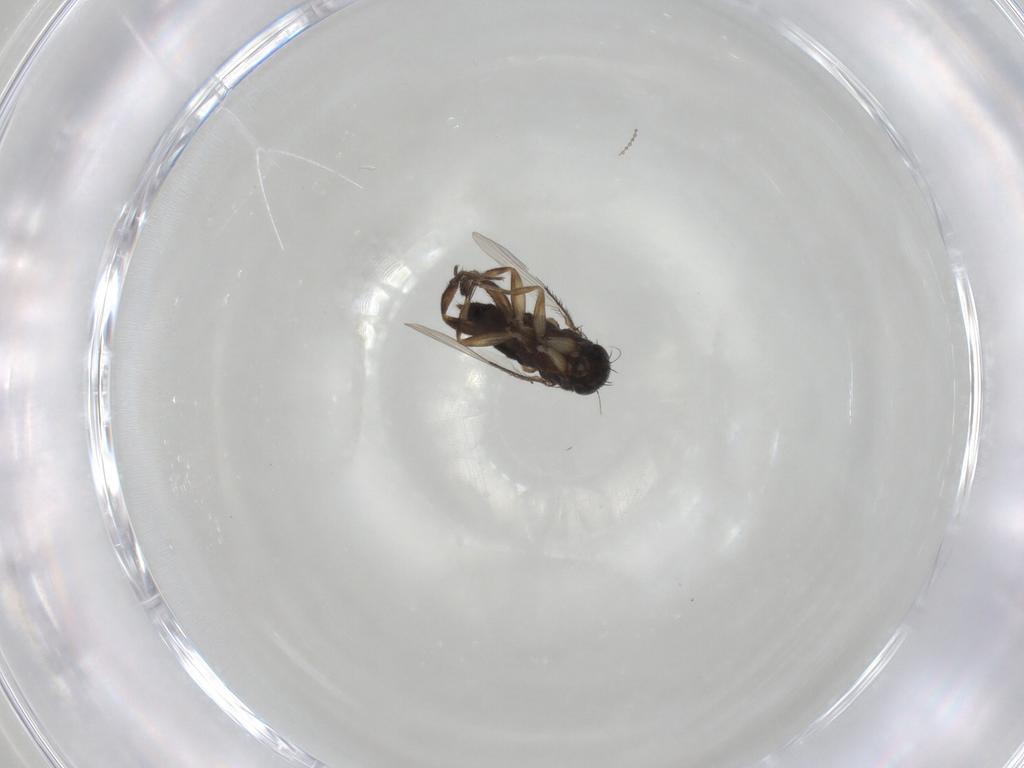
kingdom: Animalia
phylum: Arthropoda
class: Insecta
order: Diptera
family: Phoridae
